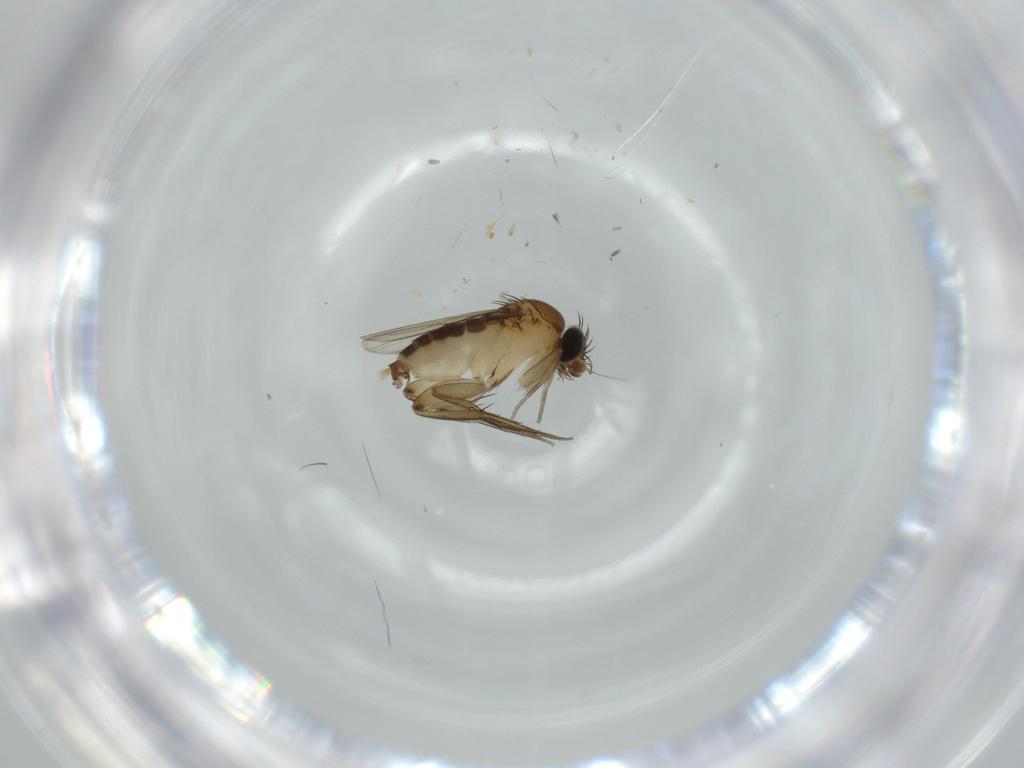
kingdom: Animalia
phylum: Arthropoda
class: Insecta
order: Diptera
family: Phoridae
